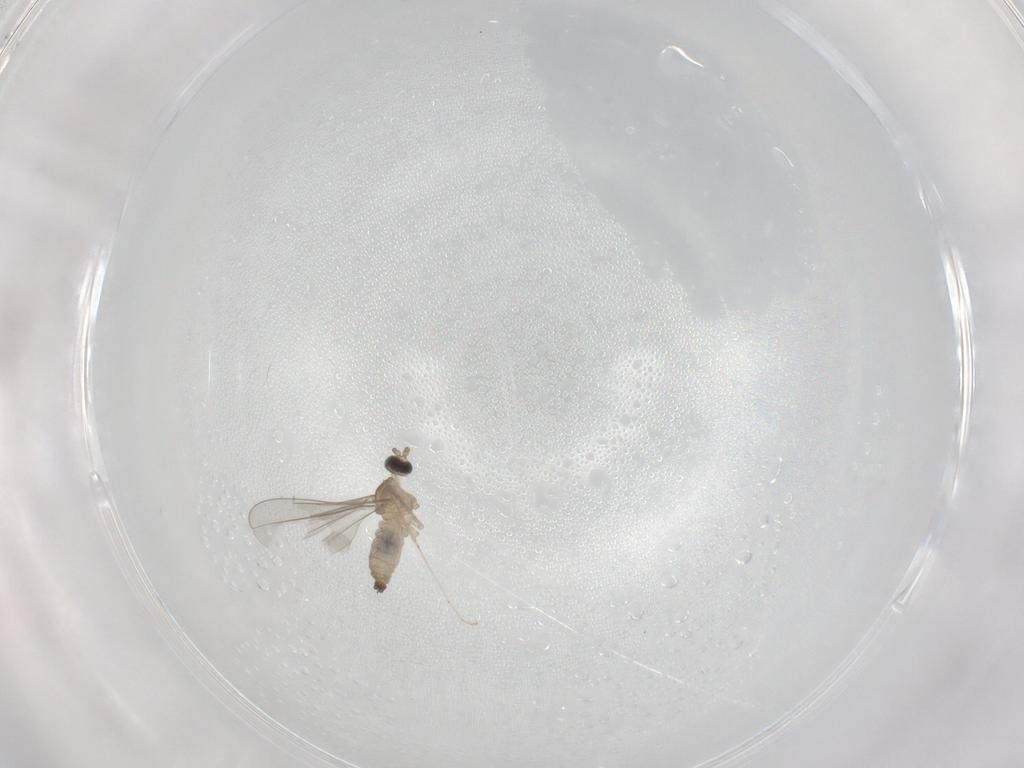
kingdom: Animalia
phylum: Arthropoda
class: Insecta
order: Diptera
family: Cecidomyiidae
